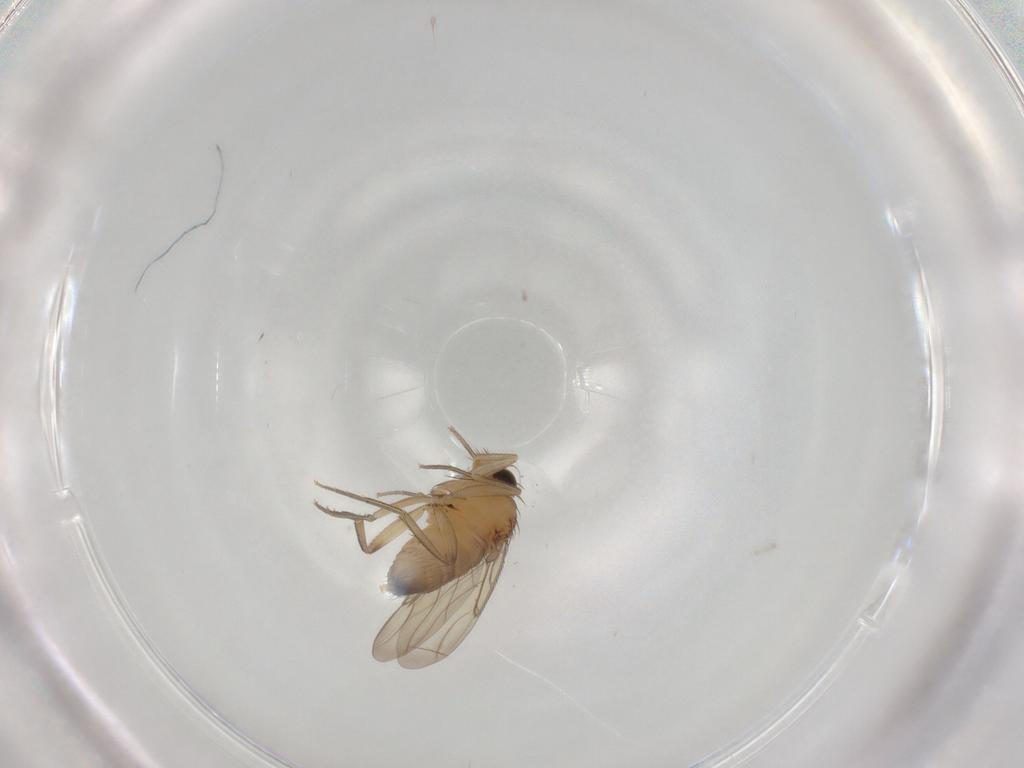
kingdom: Animalia
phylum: Arthropoda
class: Insecta
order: Diptera
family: Phoridae
